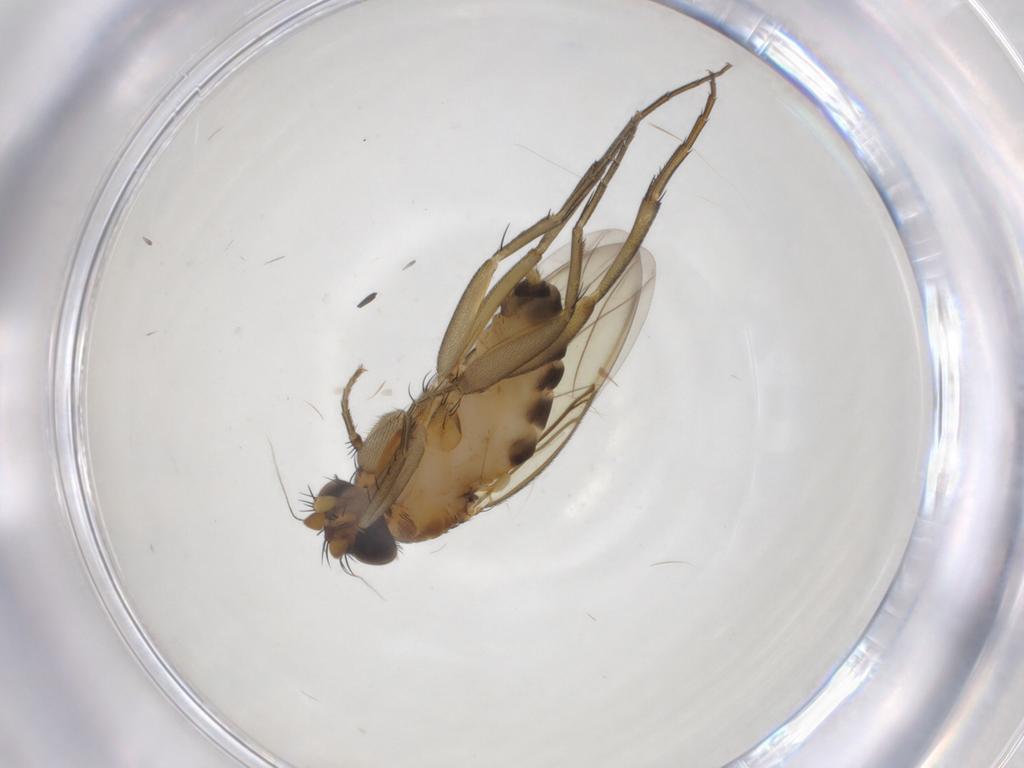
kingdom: Animalia
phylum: Arthropoda
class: Insecta
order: Diptera
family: Phoridae
